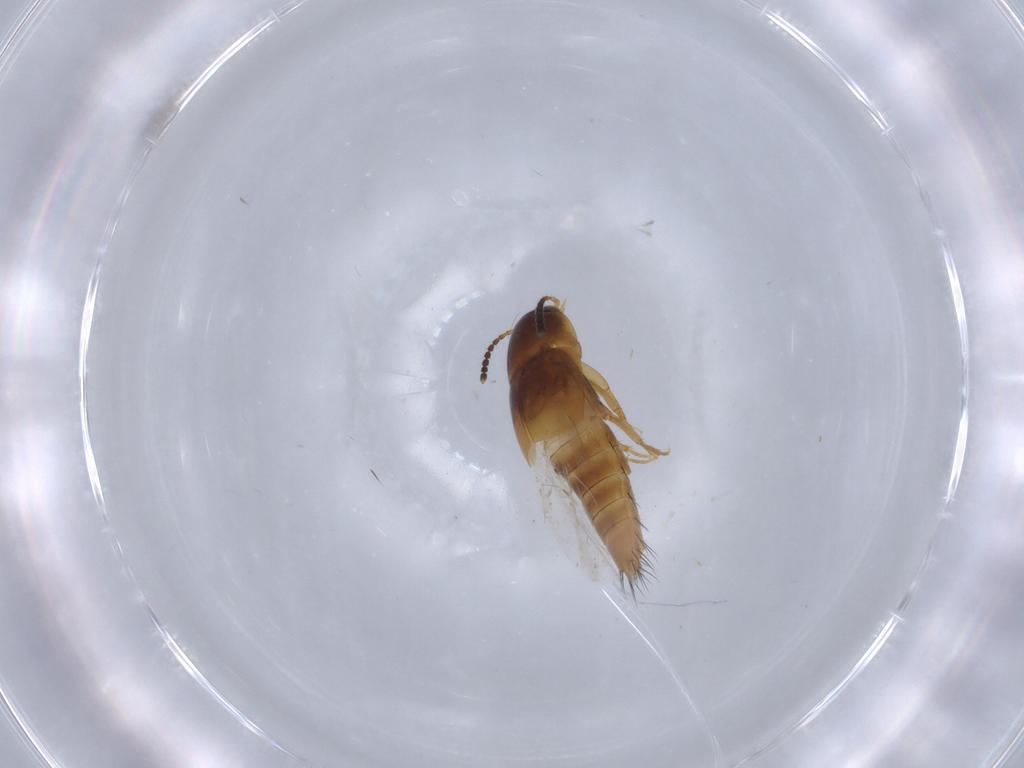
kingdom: Animalia
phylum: Arthropoda
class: Insecta
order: Coleoptera
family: Staphylinidae
